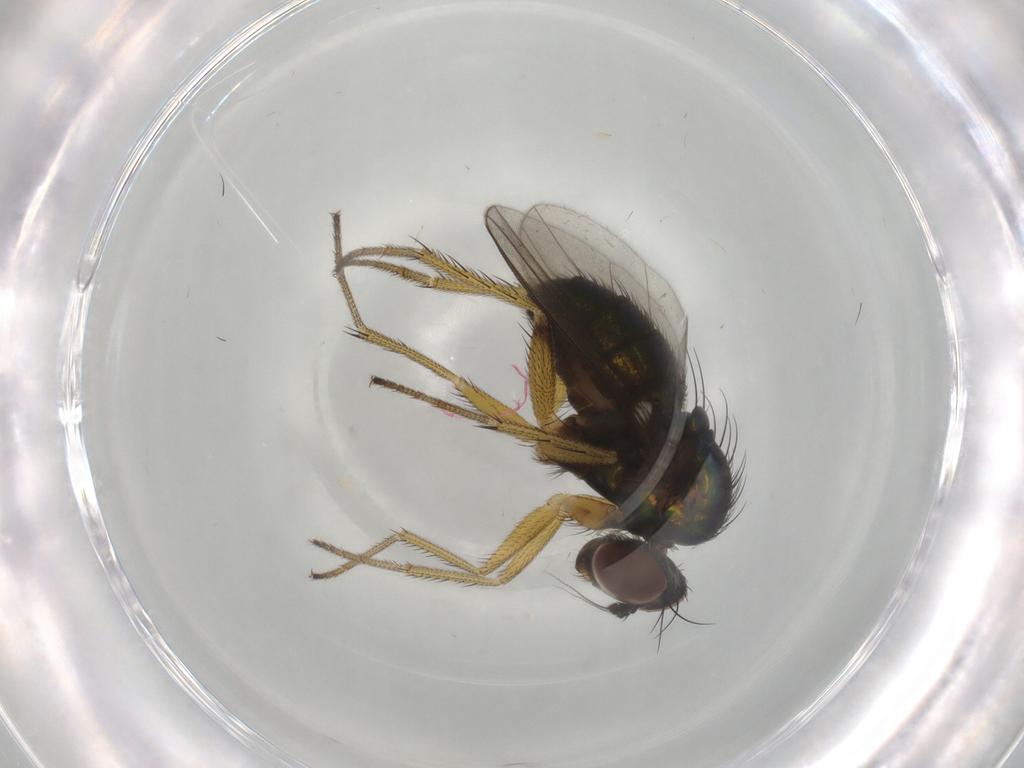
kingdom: Animalia
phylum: Arthropoda
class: Insecta
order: Diptera
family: Dolichopodidae
